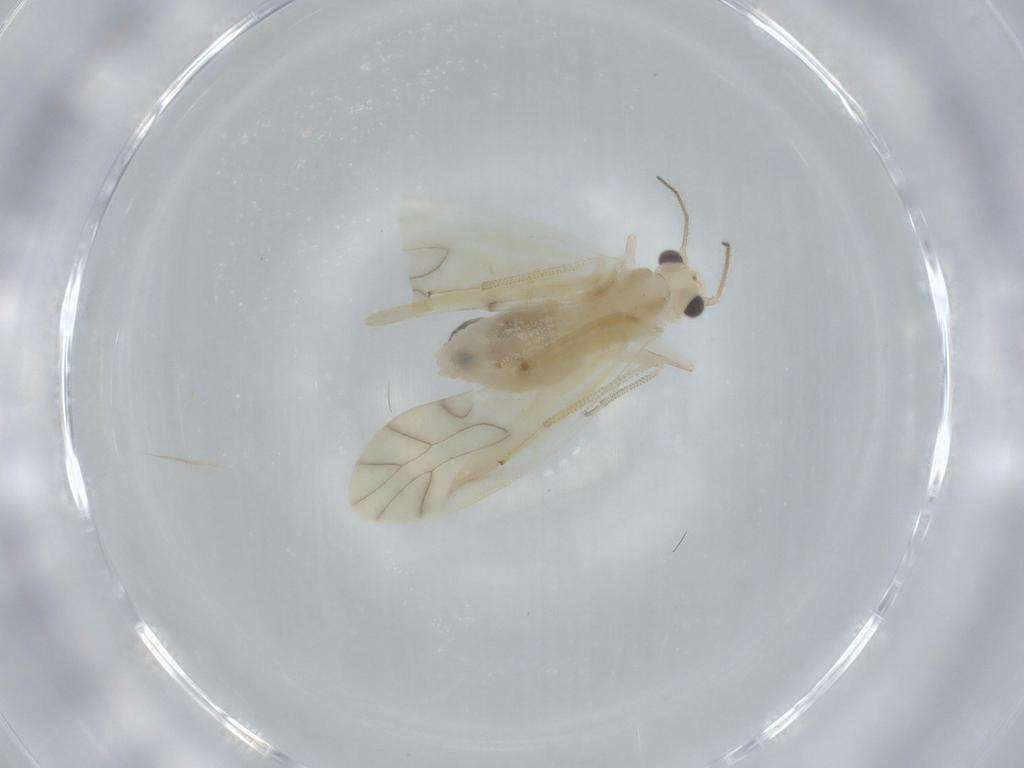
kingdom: Animalia
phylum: Arthropoda
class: Insecta
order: Psocodea
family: Caeciliusidae
